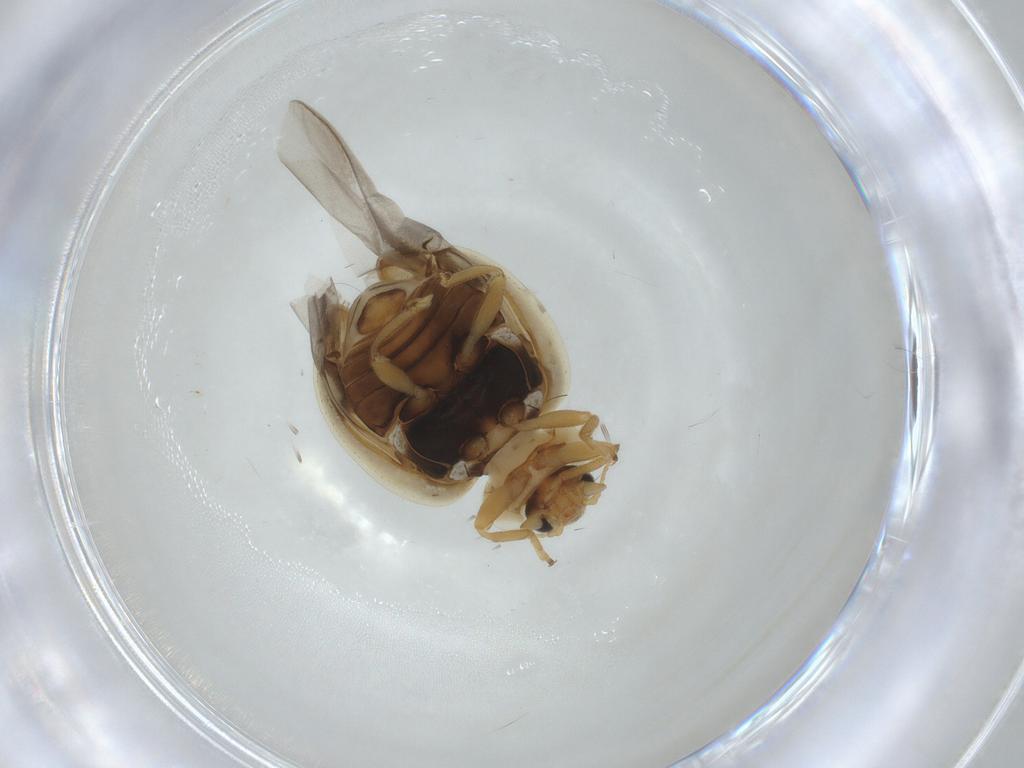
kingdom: Animalia
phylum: Arthropoda
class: Insecta
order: Coleoptera
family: Coccinellidae
